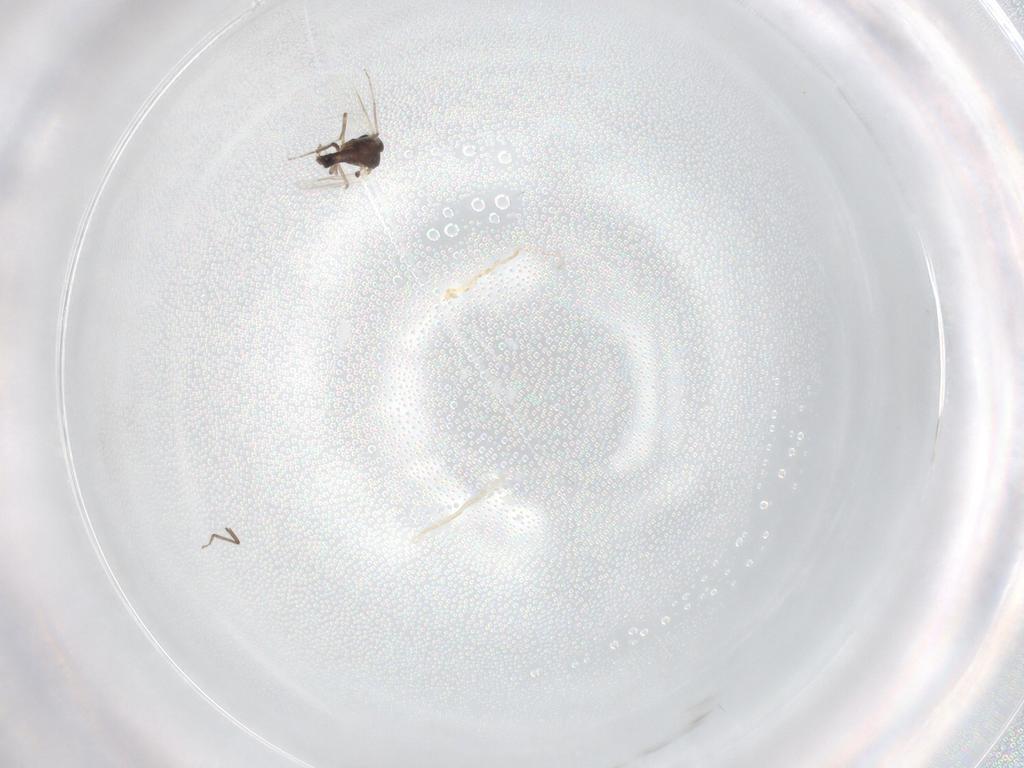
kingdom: Animalia
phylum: Arthropoda
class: Insecta
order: Diptera
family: Ceratopogonidae
